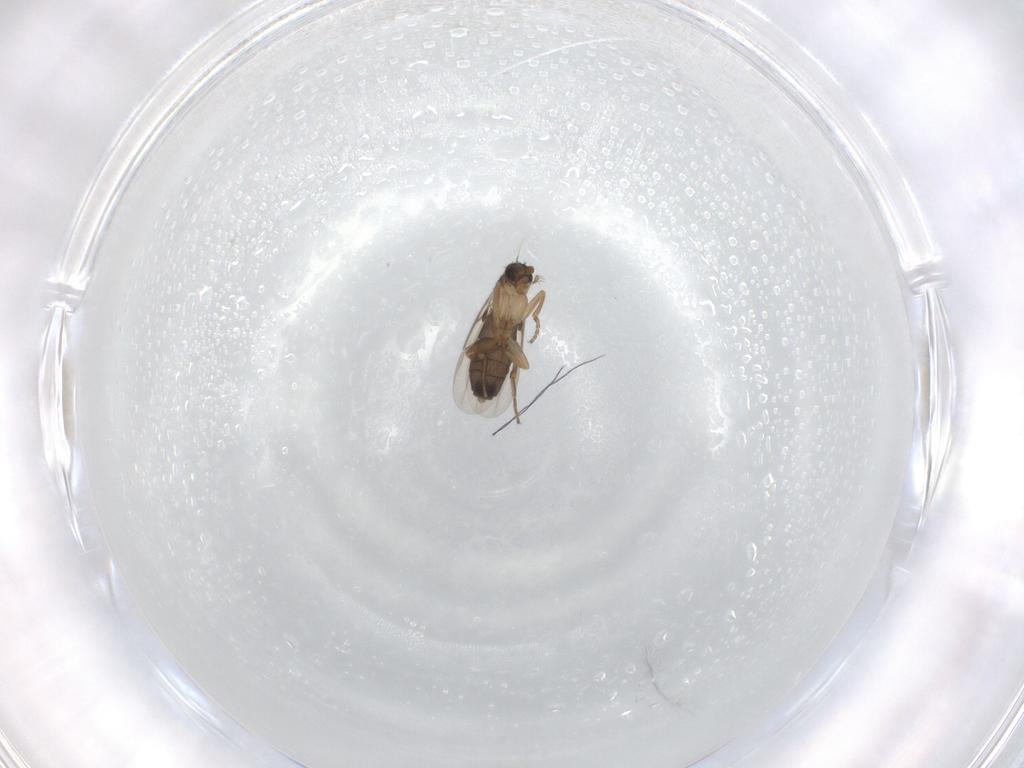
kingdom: Animalia
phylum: Arthropoda
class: Insecta
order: Diptera
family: Phoridae
